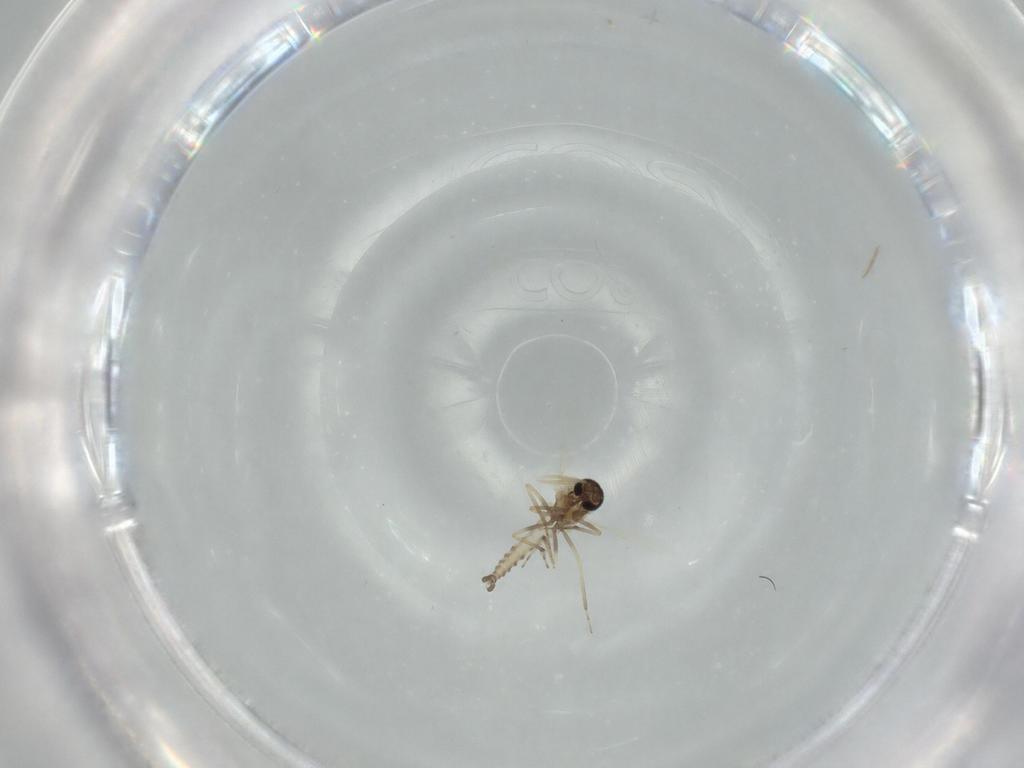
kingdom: Animalia
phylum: Arthropoda
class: Insecta
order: Diptera
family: Ceratopogonidae
